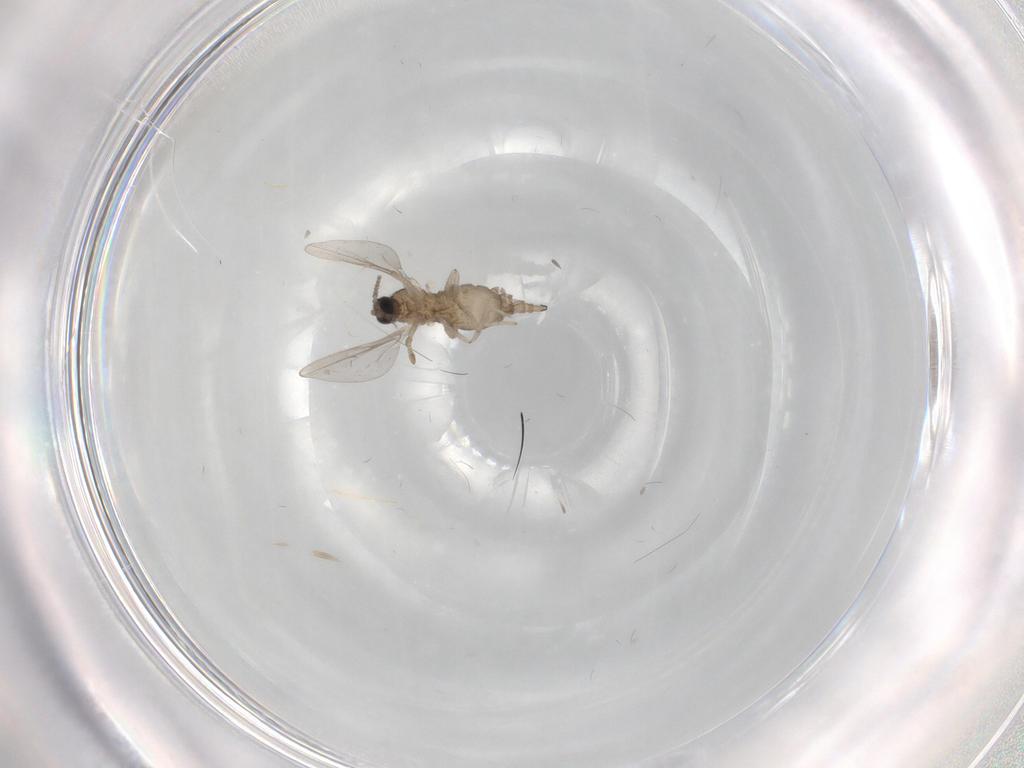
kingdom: Animalia
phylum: Arthropoda
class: Insecta
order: Diptera
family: Cecidomyiidae
